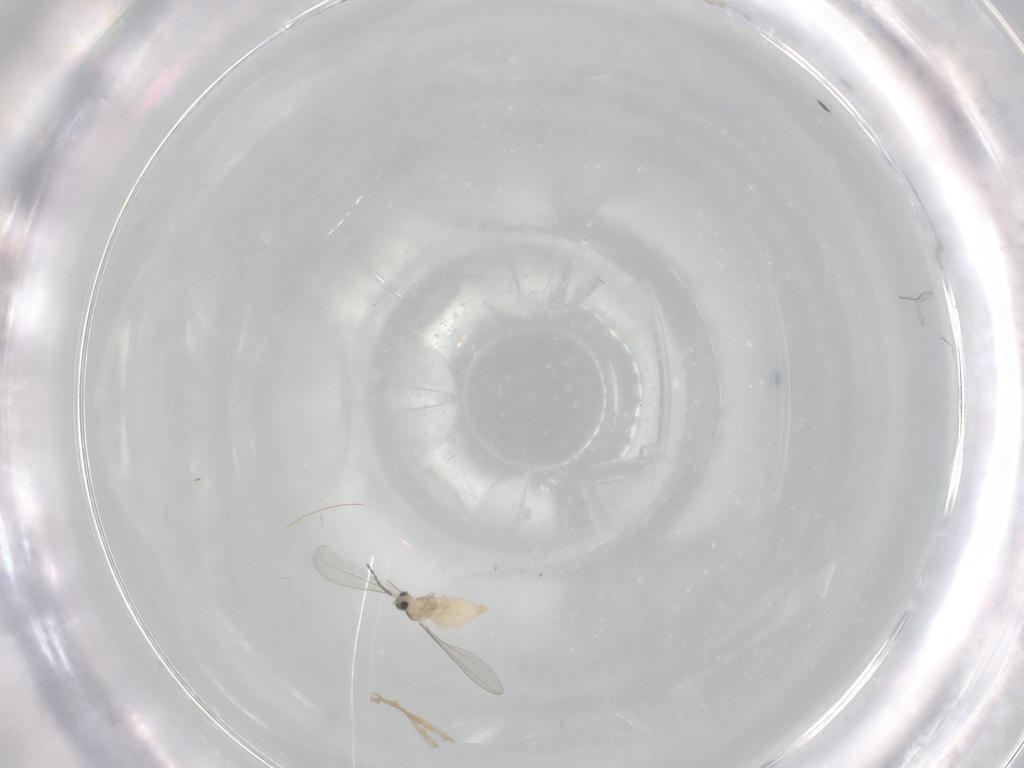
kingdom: Animalia
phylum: Arthropoda
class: Insecta
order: Diptera
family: Cecidomyiidae
